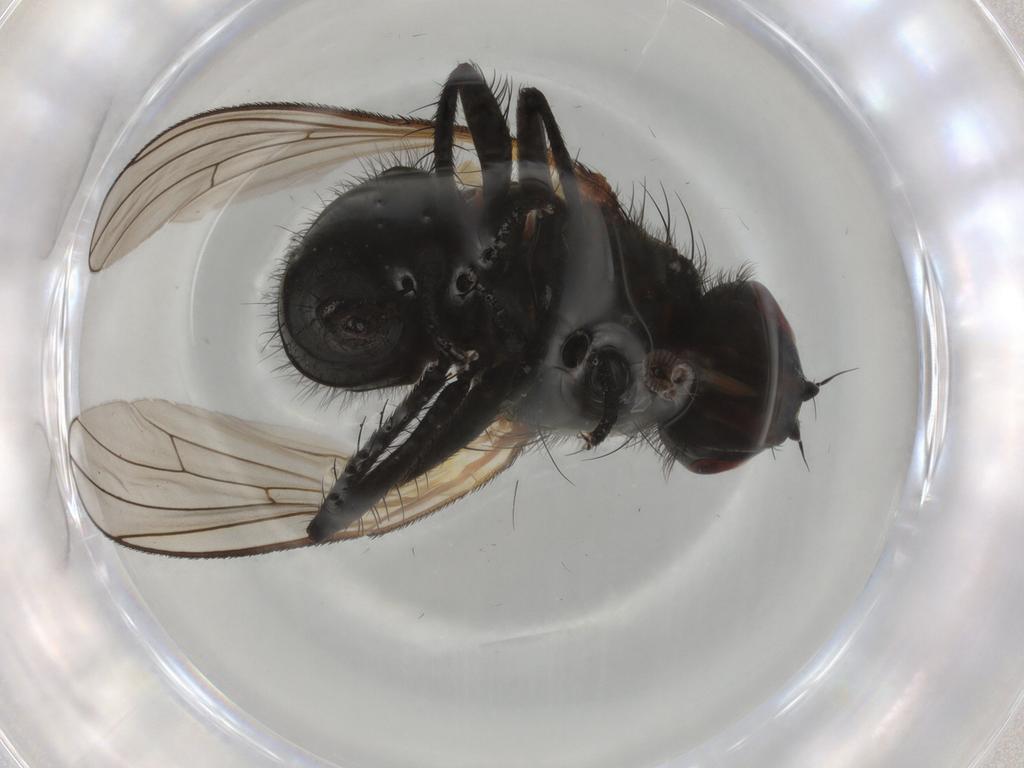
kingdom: Animalia
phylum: Arthropoda
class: Insecta
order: Diptera
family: Anthomyiidae
